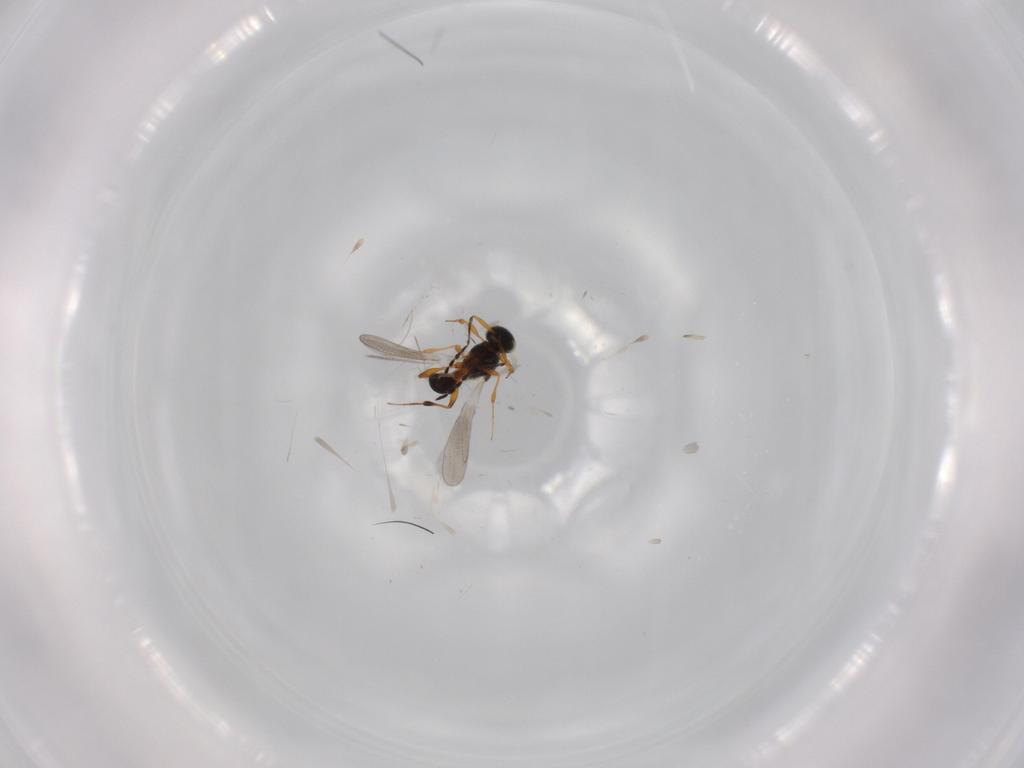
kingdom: Animalia
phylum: Arthropoda
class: Insecta
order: Hymenoptera
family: Platygastridae
